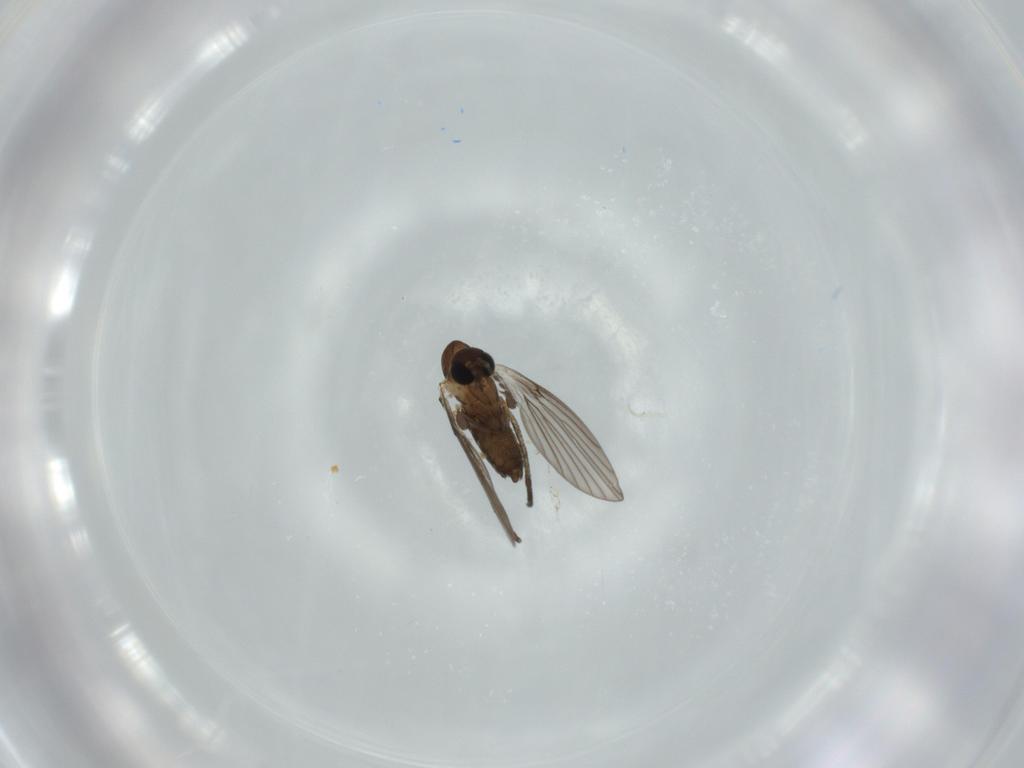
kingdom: Animalia
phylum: Arthropoda
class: Insecta
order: Diptera
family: Psychodidae
